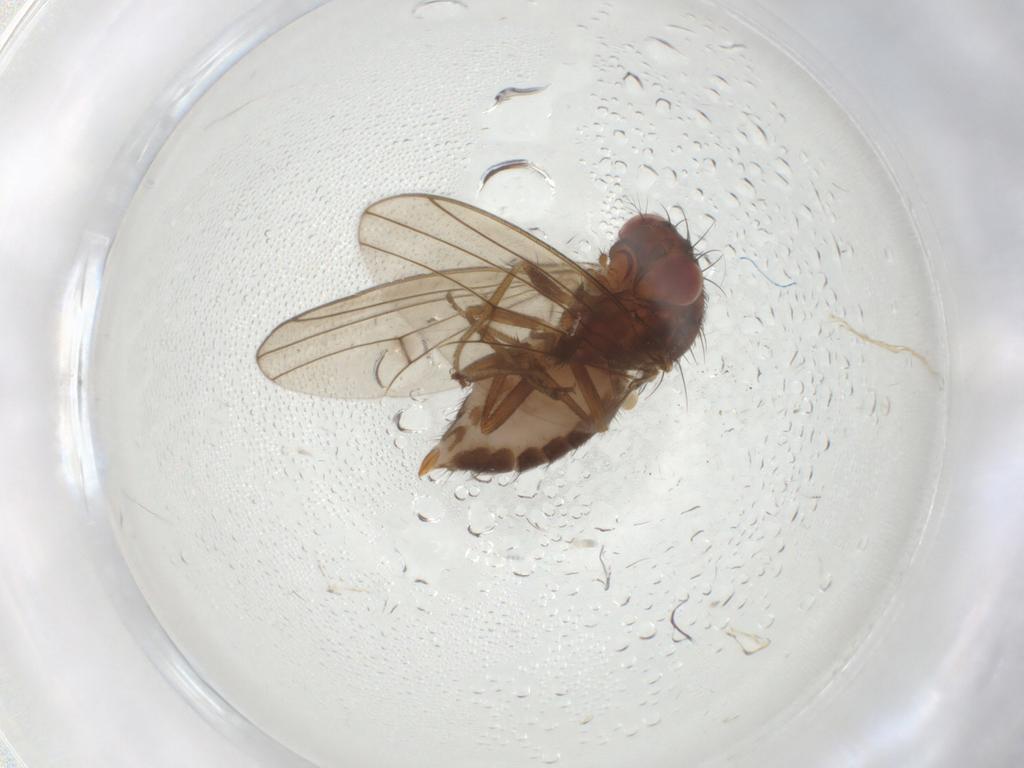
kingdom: Animalia
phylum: Arthropoda
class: Insecta
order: Diptera
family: Drosophilidae
